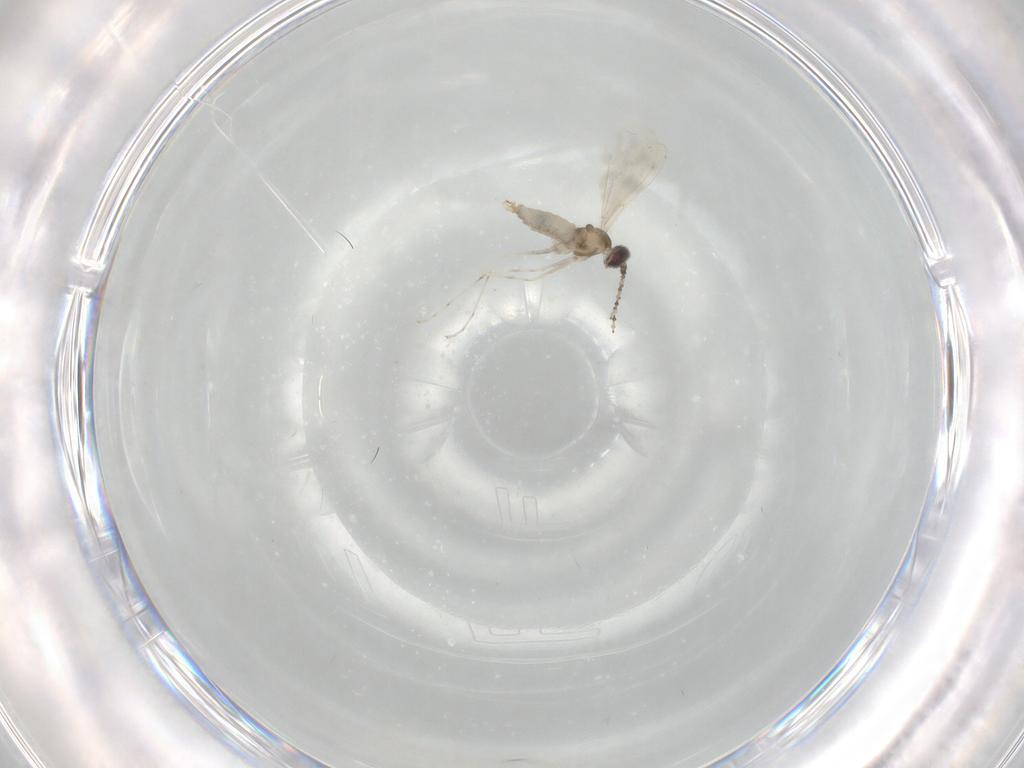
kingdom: Animalia
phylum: Arthropoda
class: Insecta
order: Diptera
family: Cecidomyiidae
